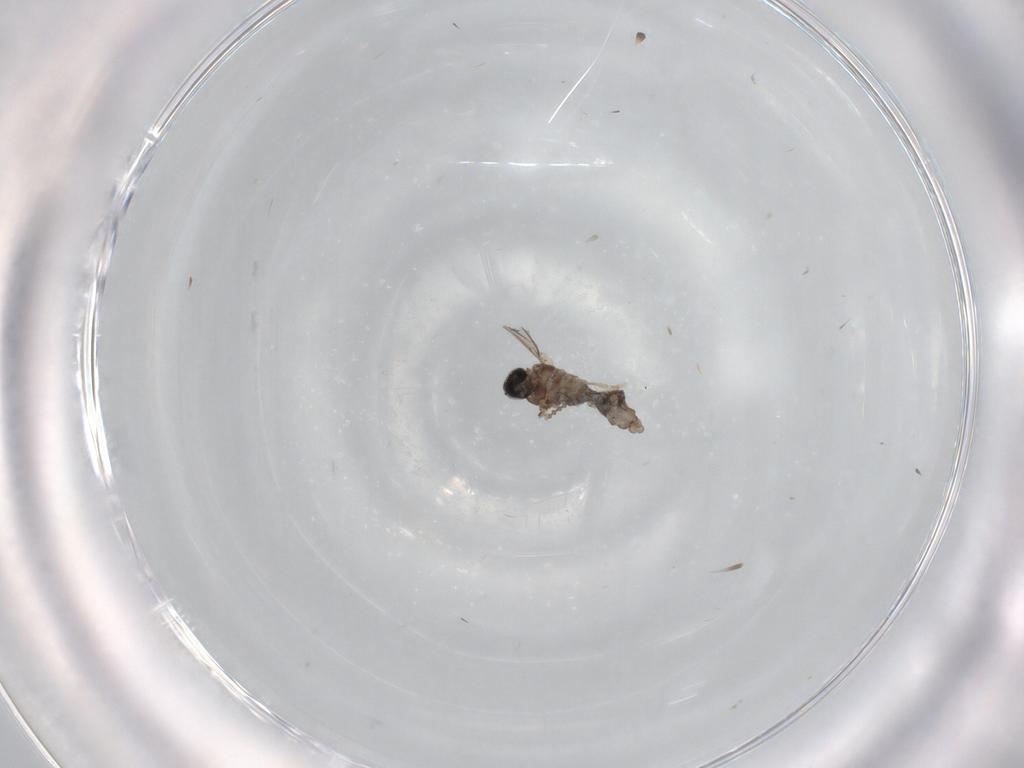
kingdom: Animalia
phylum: Arthropoda
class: Insecta
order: Diptera
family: Cecidomyiidae
